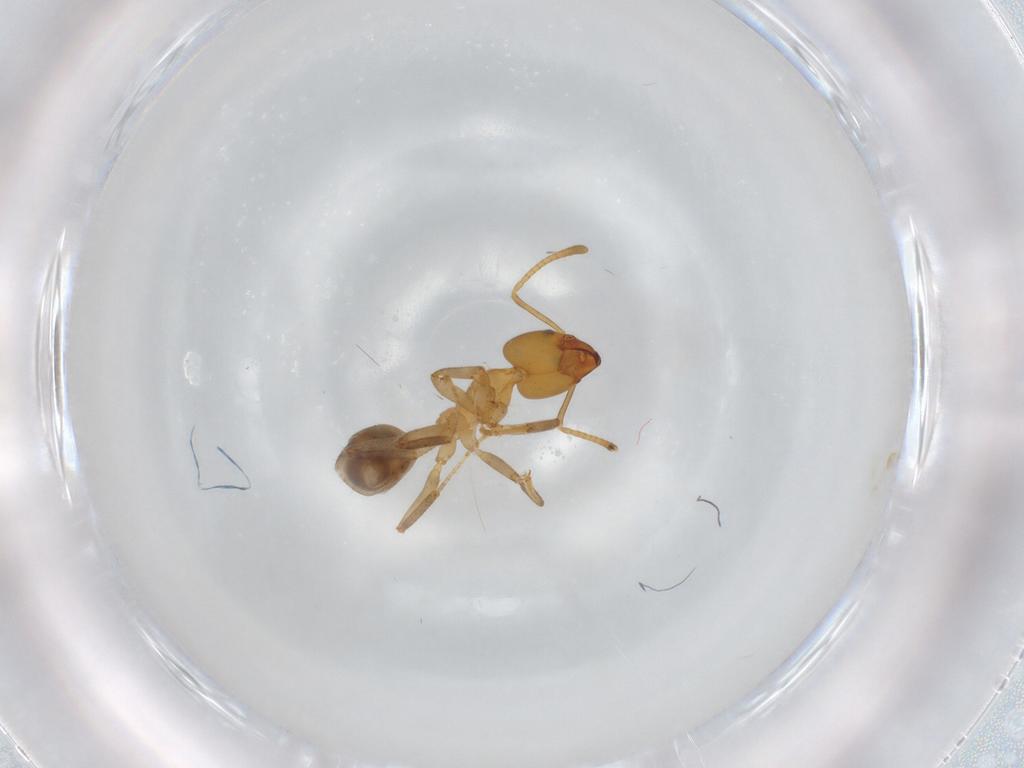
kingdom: Animalia
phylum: Arthropoda
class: Insecta
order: Hymenoptera
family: Formicidae
